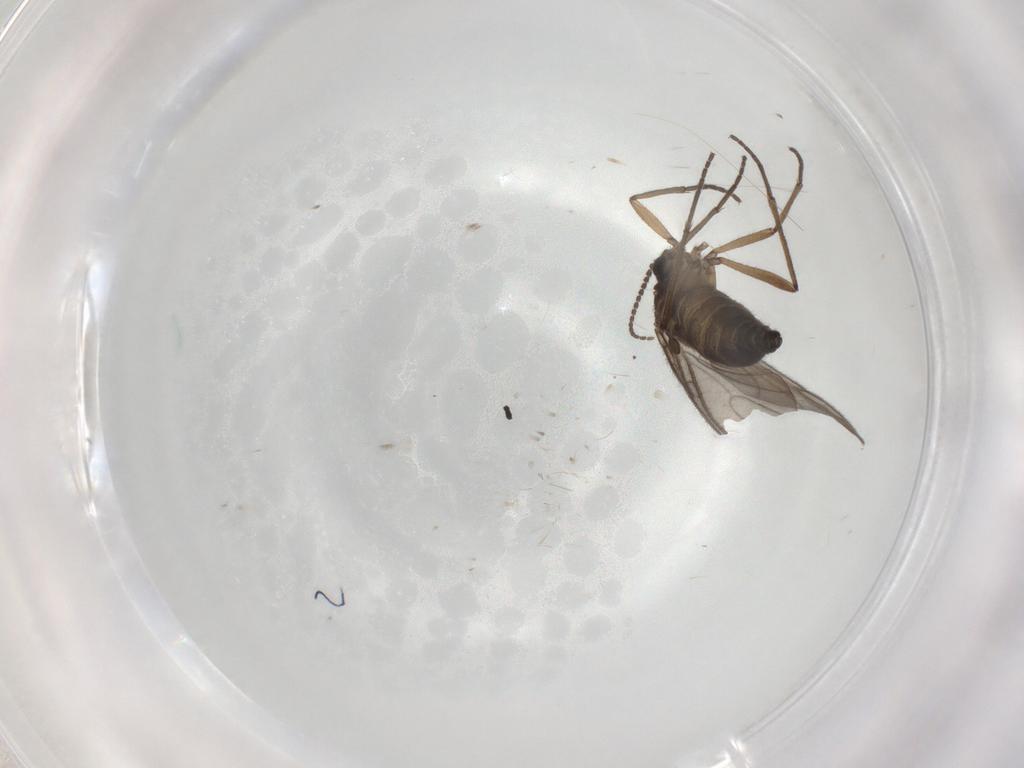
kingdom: Animalia
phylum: Arthropoda
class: Insecta
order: Diptera
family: Sciaridae
